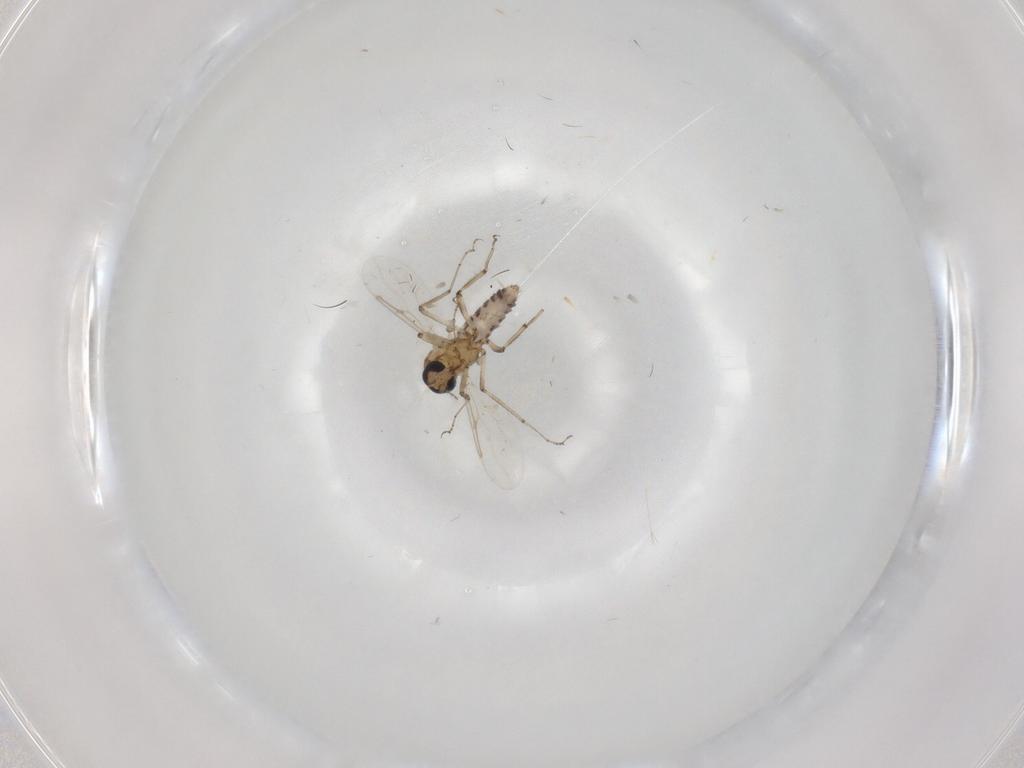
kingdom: Animalia
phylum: Arthropoda
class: Insecta
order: Diptera
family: Ceratopogonidae
